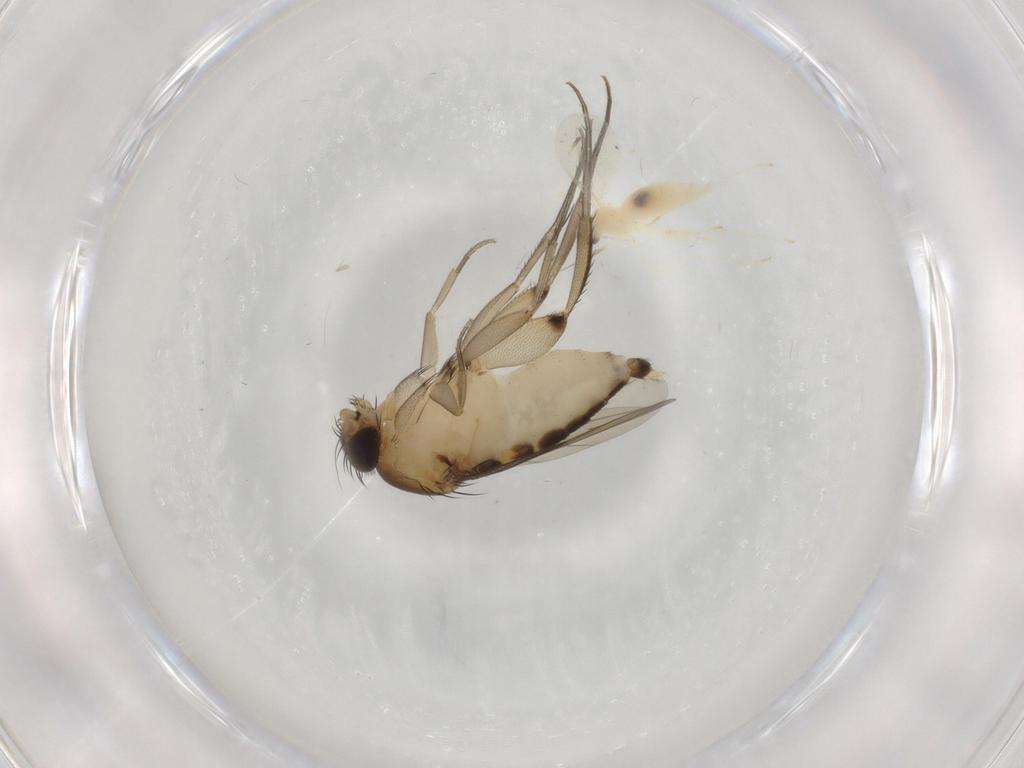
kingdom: Animalia
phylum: Arthropoda
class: Insecta
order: Diptera
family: Phoridae
